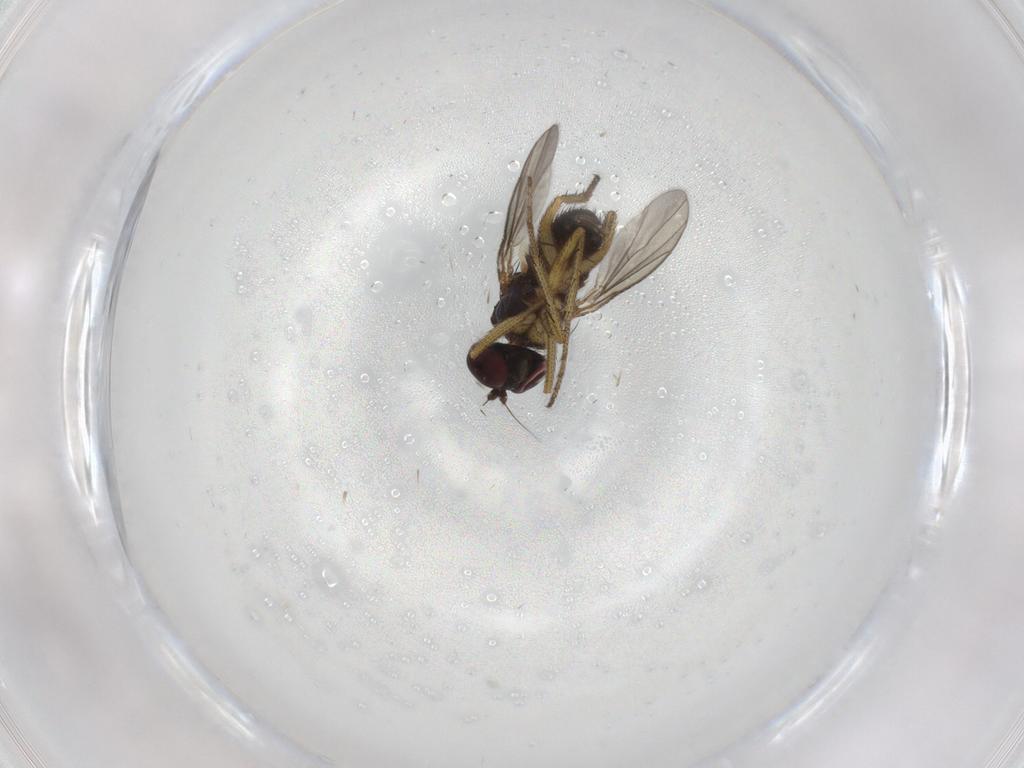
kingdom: Animalia
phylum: Arthropoda
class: Insecta
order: Diptera
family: Dolichopodidae
